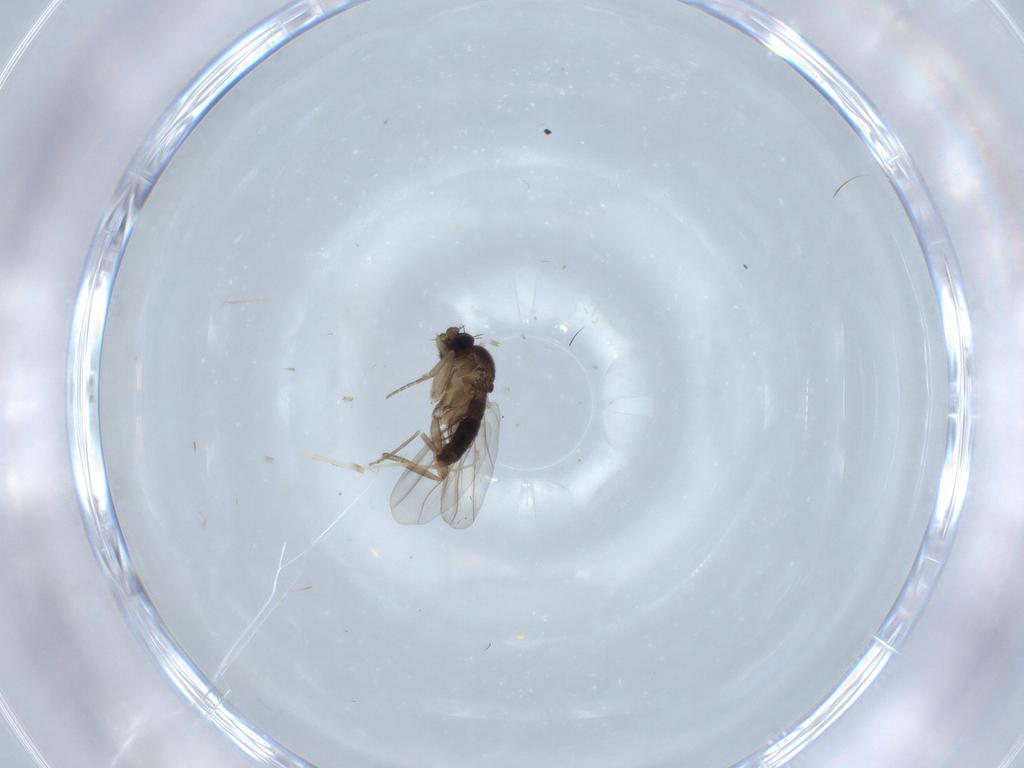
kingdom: Animalia
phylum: Arthropoda
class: Insecta
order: Diptera
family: Phoridae
